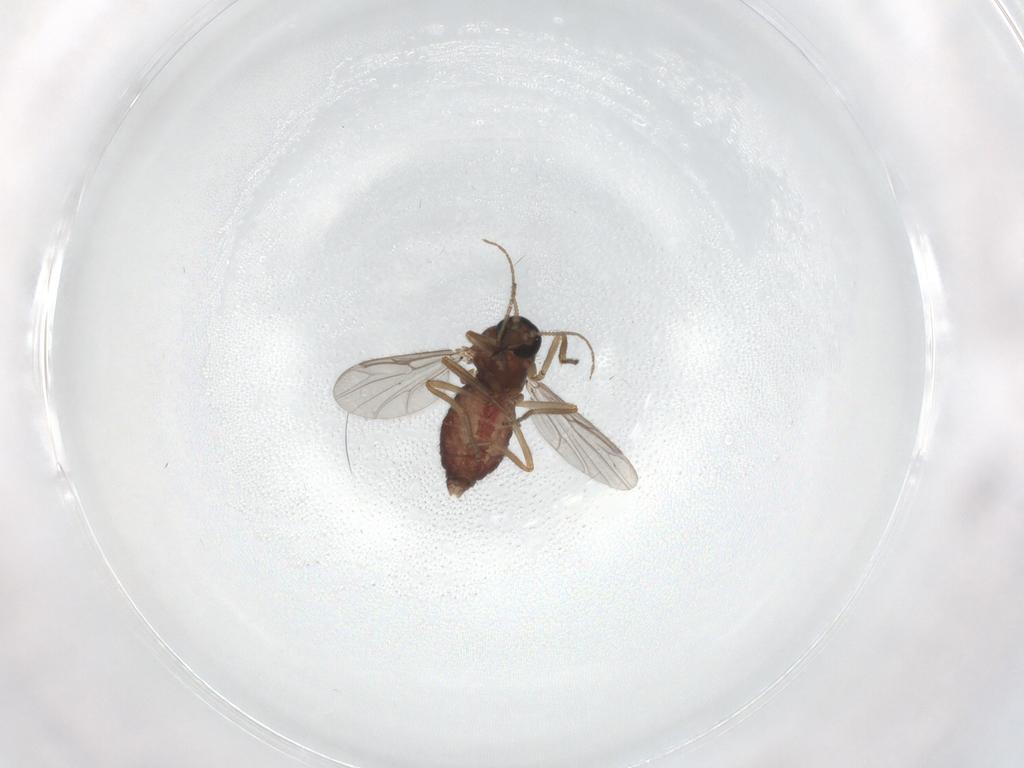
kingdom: Animalia
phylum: Arthropoda
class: Insecta
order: Diptera
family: Ceratopogonidae
